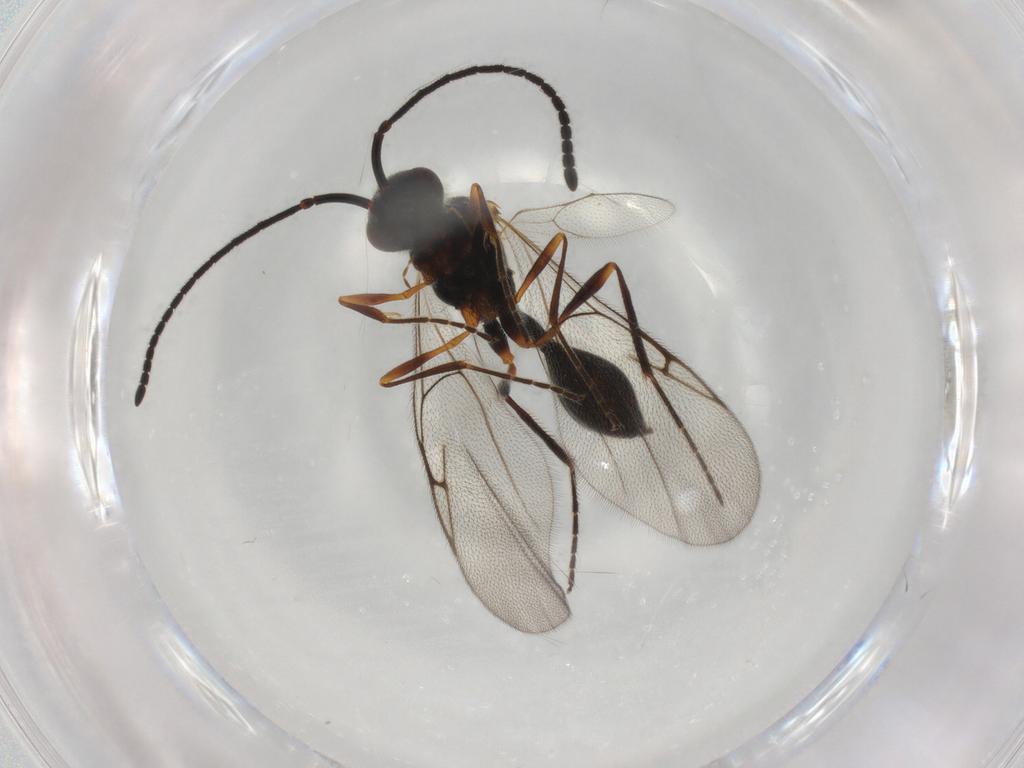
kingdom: Animalia
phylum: Arthropoda
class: Insecta
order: Hymenoptera
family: Diapriidae
